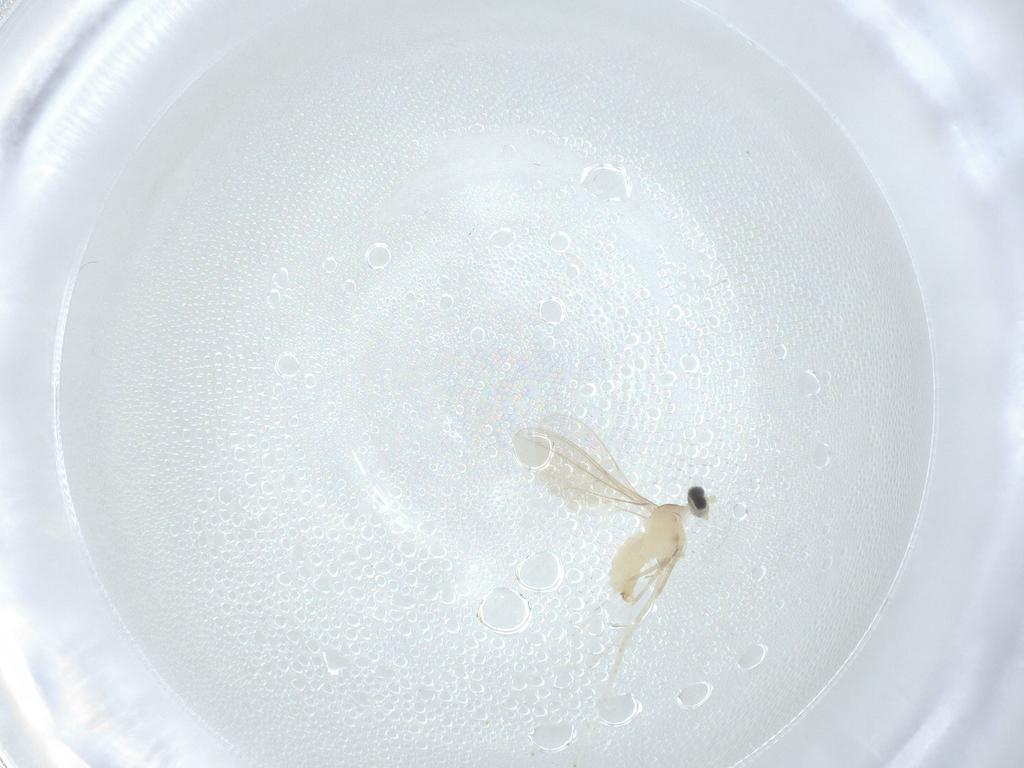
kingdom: Animalia
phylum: Arthropoda
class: Insecta
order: Diptera
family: Cecidomyiidae
